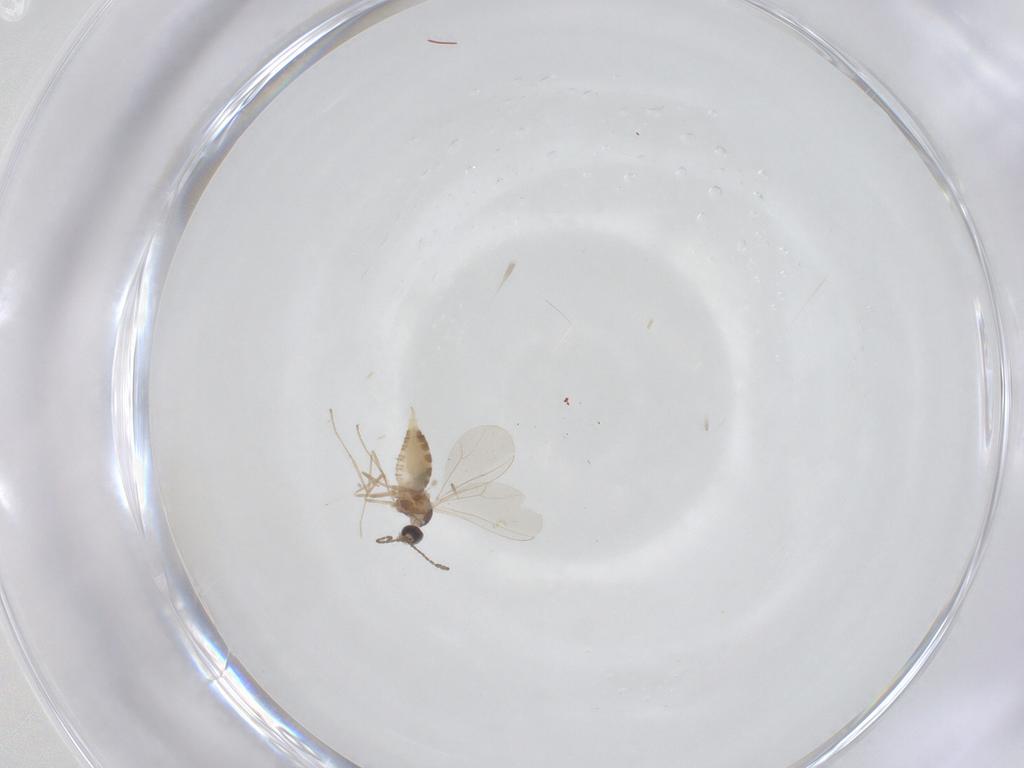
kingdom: Animalia
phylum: Arthropoda
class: Insecta
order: Diptera
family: Cecidomyiidae
